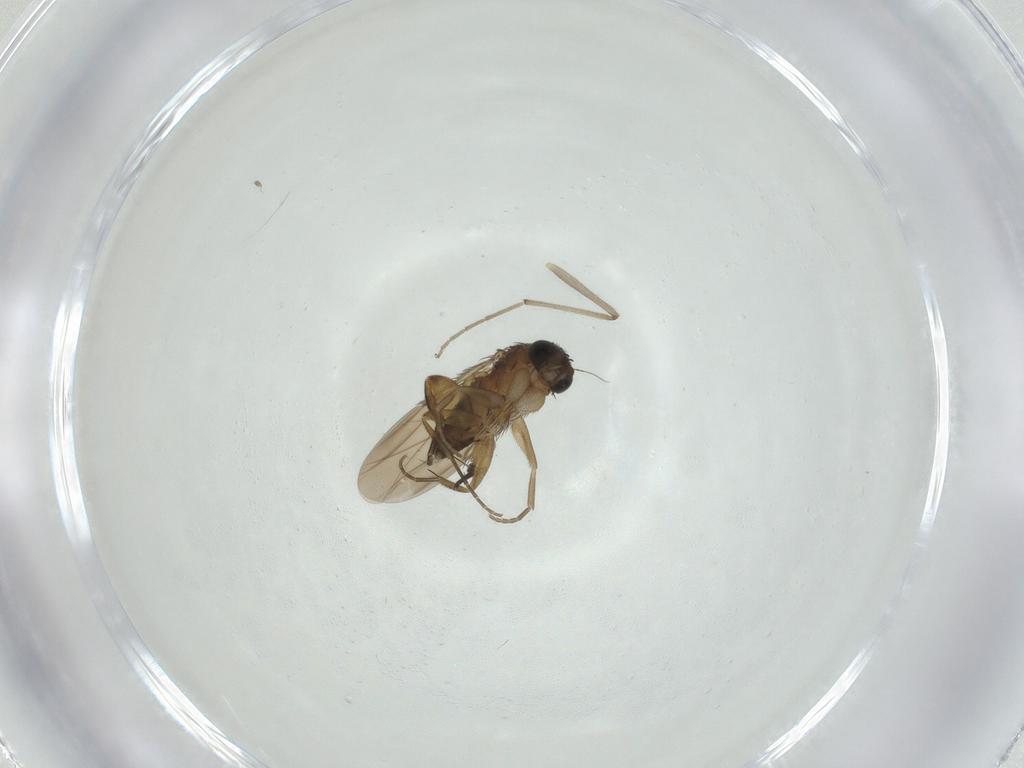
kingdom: Animalia
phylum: Arthropoda
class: Insecta
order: Diptera
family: Phoridae
